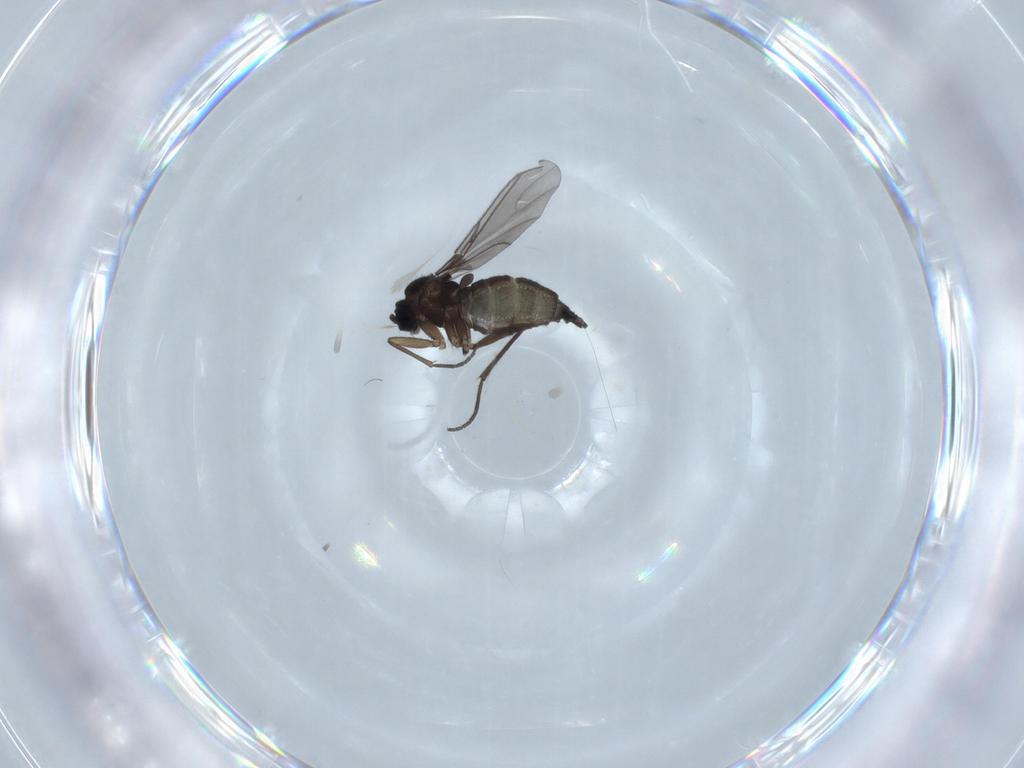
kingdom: Animalia
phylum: Arthropoda
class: Insecta
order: Diptera
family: Sciaridae
